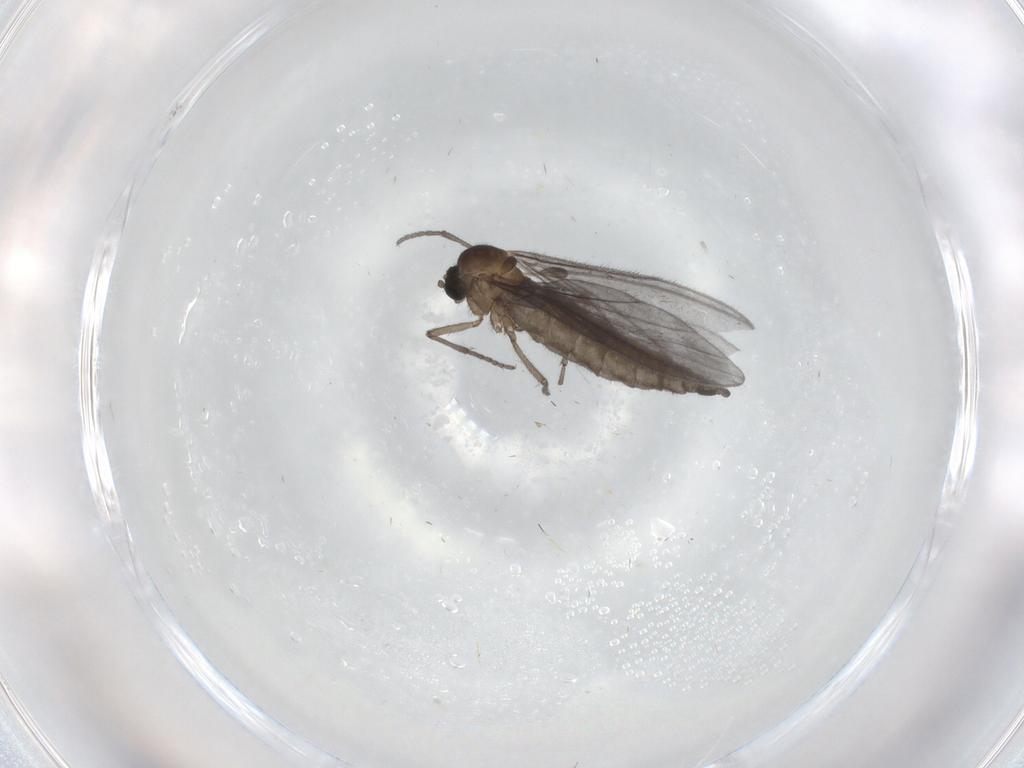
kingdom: Animalia
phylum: Arthropoda
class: Insecta
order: Diptera
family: Sciaridae
